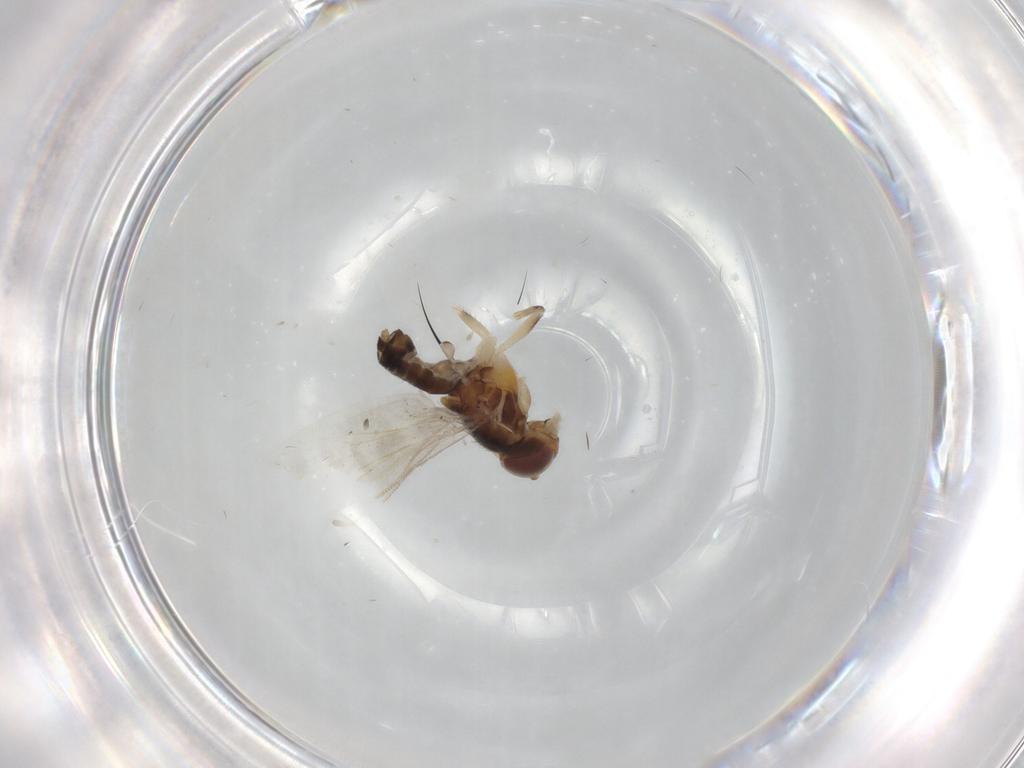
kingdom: Animalia
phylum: Arthropoda
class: Insecta
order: Diptera
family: Periscelididae
